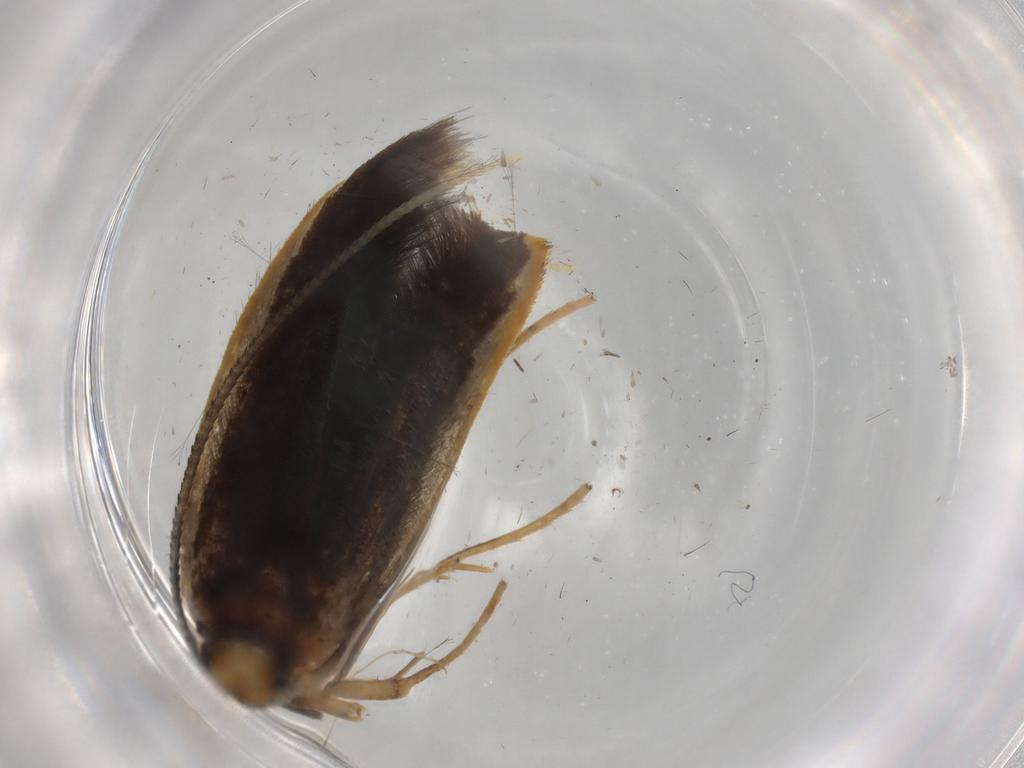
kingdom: Animalia
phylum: Arthropoda
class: Insecta
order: Lepidoptera
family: Pterolonchidae
